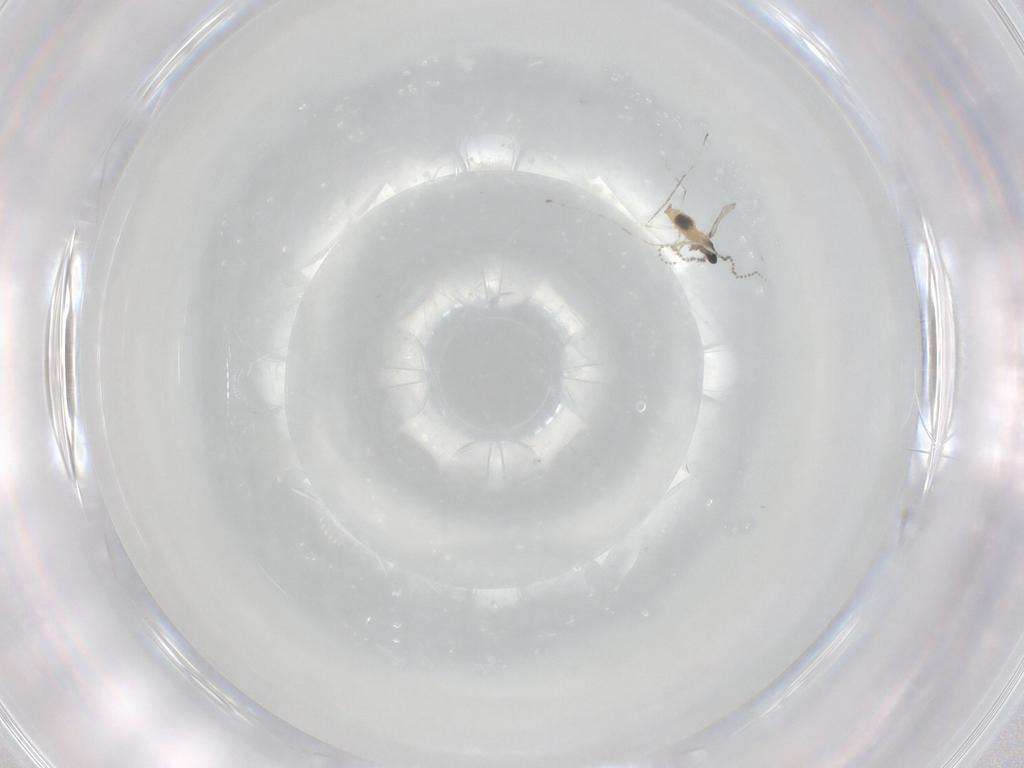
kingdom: Animalia
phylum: Arthropoda
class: Insecta
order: Diptera
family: Cecidomyiidae
